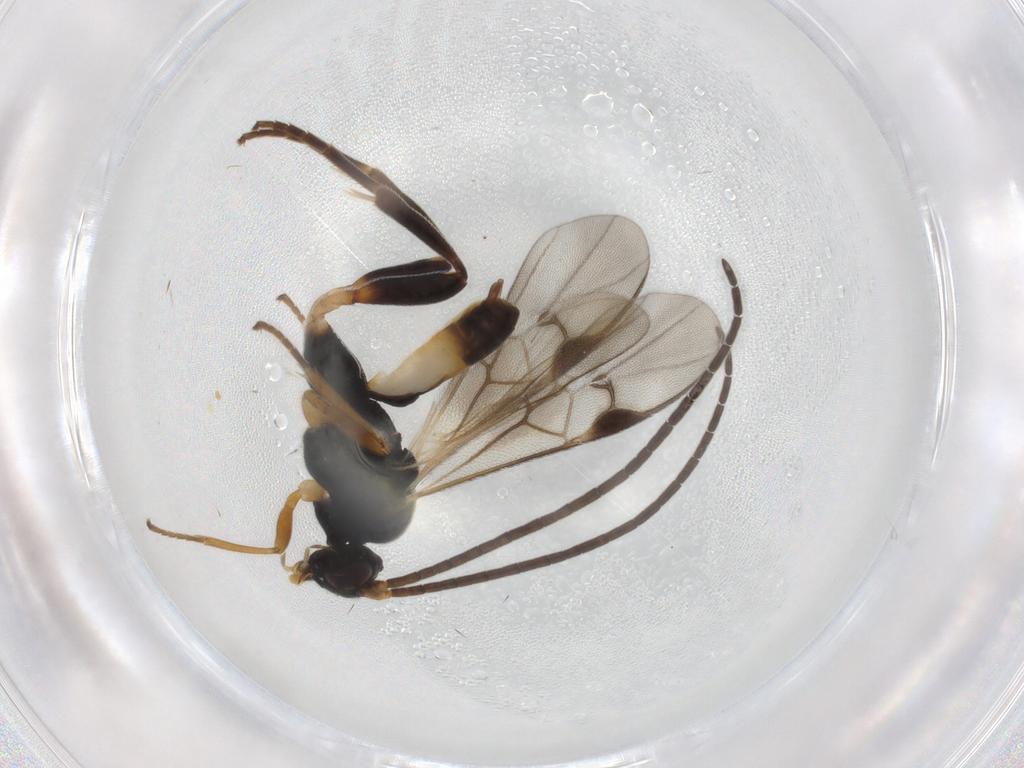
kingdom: Animalia
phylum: Arthropoda
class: Insecta
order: Hymenoptera
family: Braconidae
